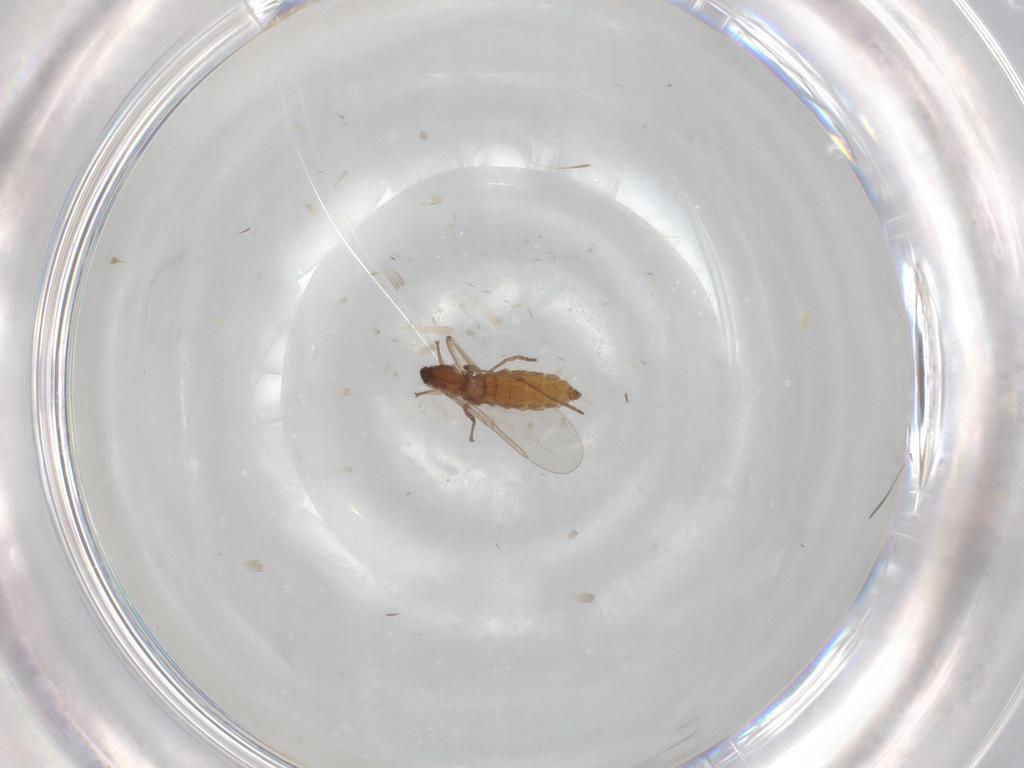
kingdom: Animalia
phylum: Arthropoda
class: Insecta
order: Diptera
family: Cecidomyiidae
